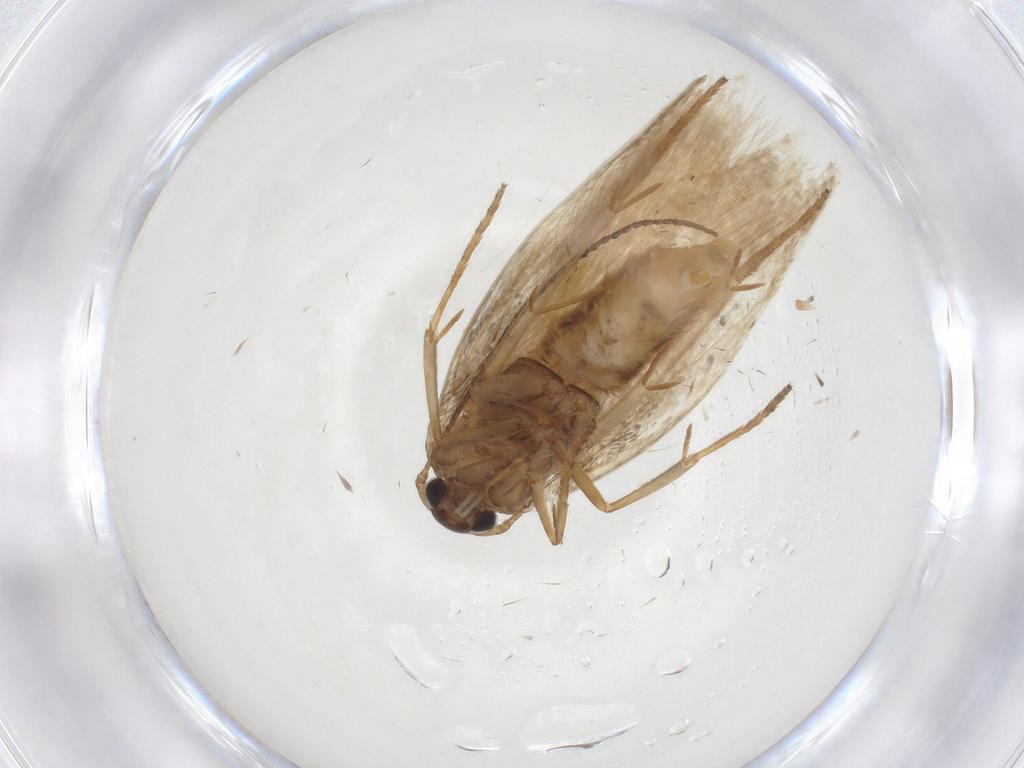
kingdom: Animalia
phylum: Arthropoda
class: Insecta
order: Lepidoptera
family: Erebidae
